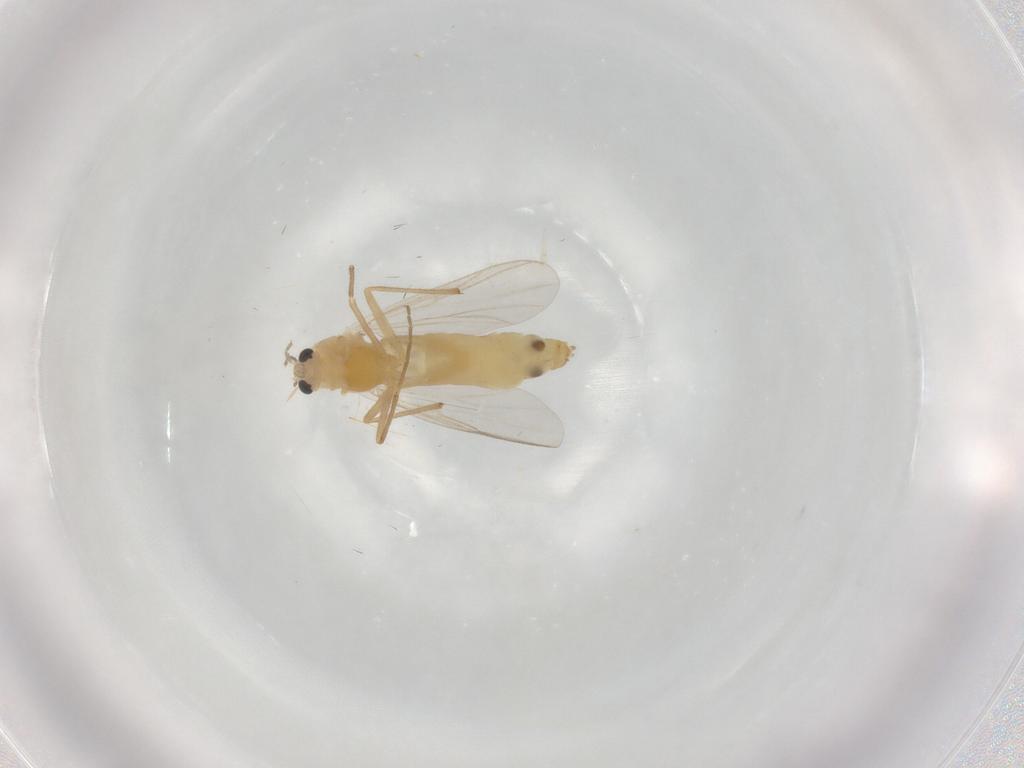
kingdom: Animalia
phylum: Arthropoda
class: Insecta
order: Diptera
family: Chironomidae
